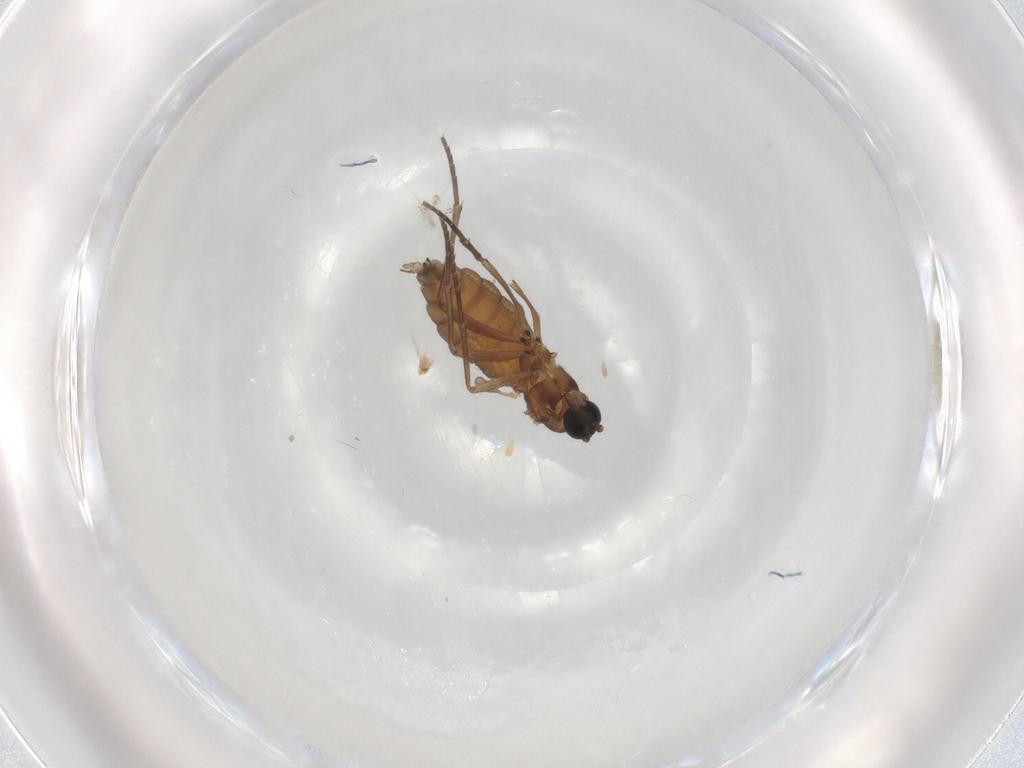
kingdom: Animalia
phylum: Arthropoda
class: Insecta
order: Diptera
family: Sciaridae
